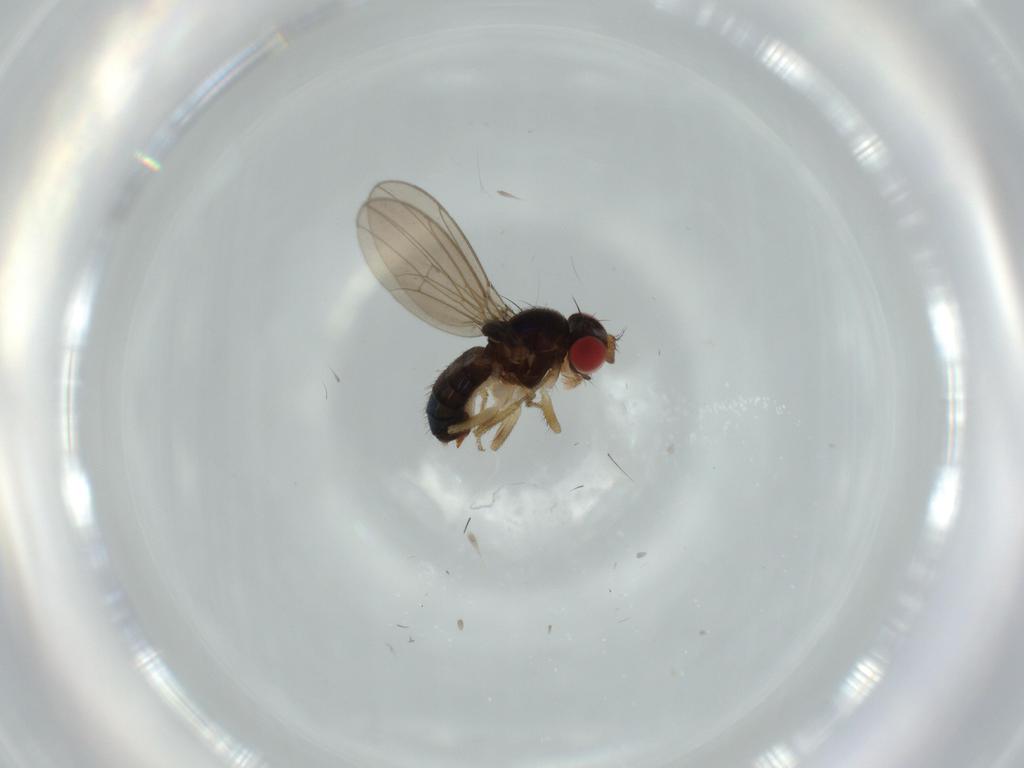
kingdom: Animalia
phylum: Arthropoda
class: Insecta
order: Diptera
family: Drosophilidae
